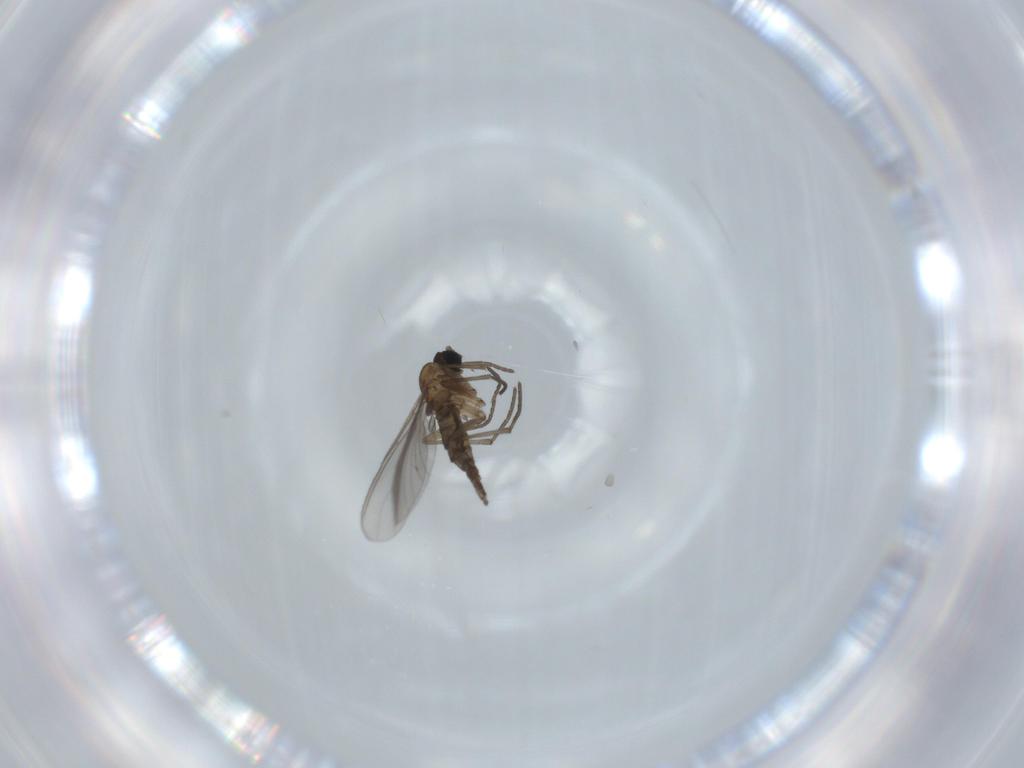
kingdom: Animalia
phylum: Arthropoda
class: Insecta
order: Diptera
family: Sciaridae
